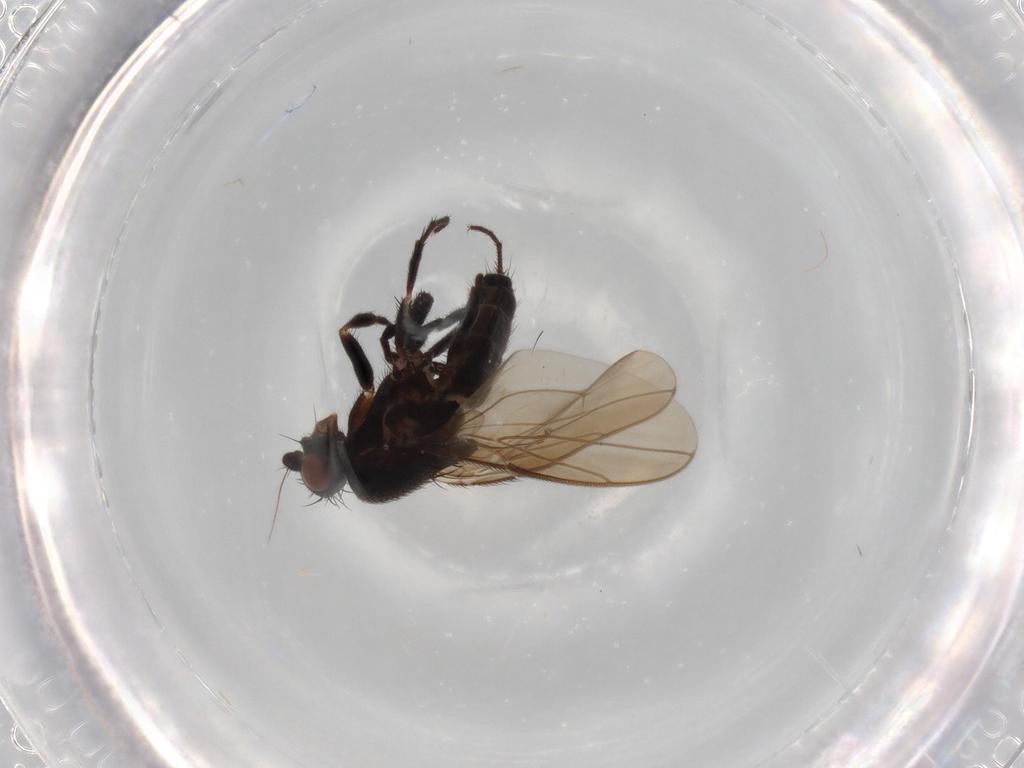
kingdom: Animalia
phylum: Arthropoda
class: Insecta
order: Diptera
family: Sphaeroceridae
